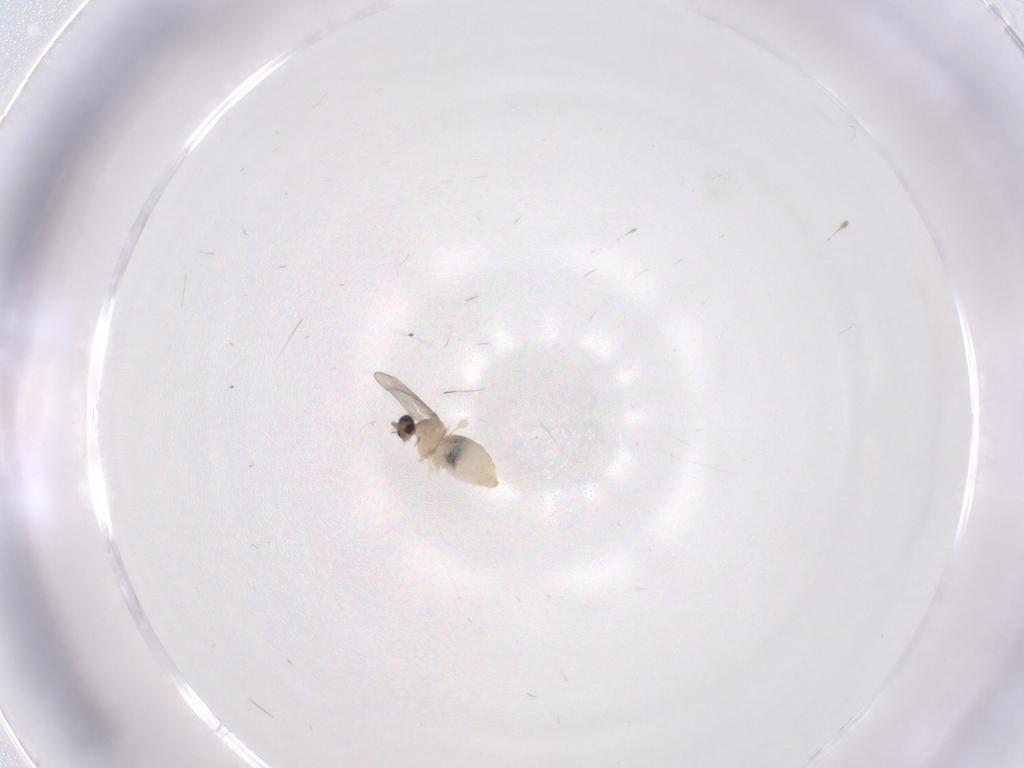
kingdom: Animalia
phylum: Arthropoda
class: Insecta
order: Diptera
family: Cecidomyiidae
